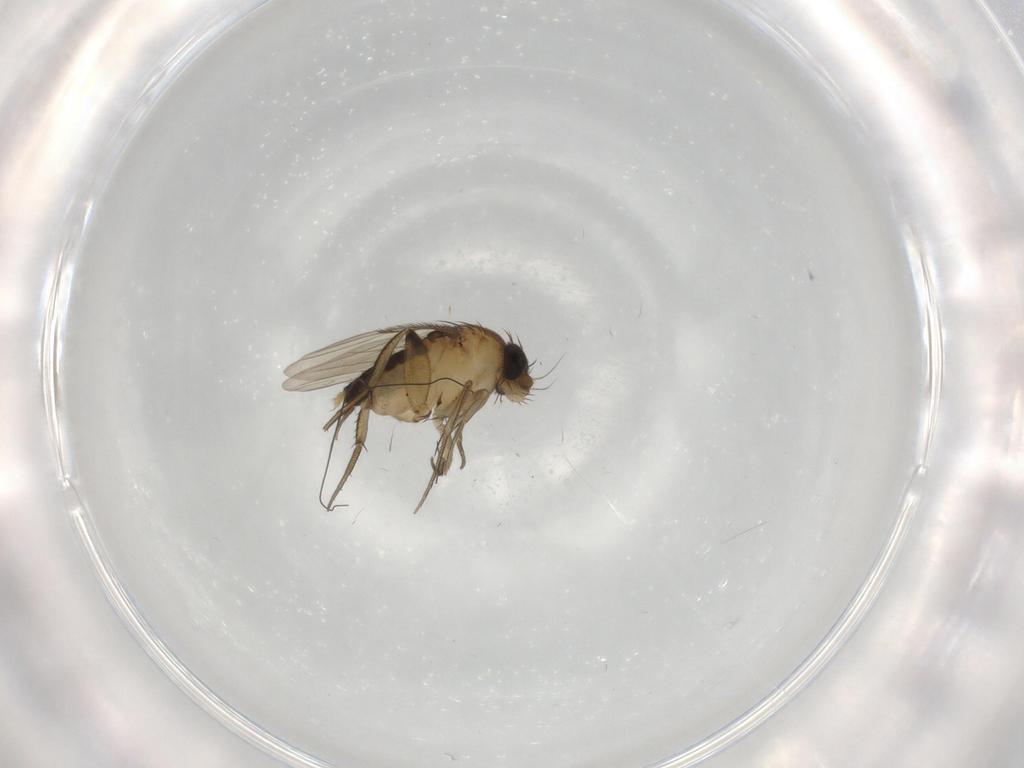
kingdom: Animalia
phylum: Arthropoda
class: Insecta
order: Diptera
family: Phoridae
